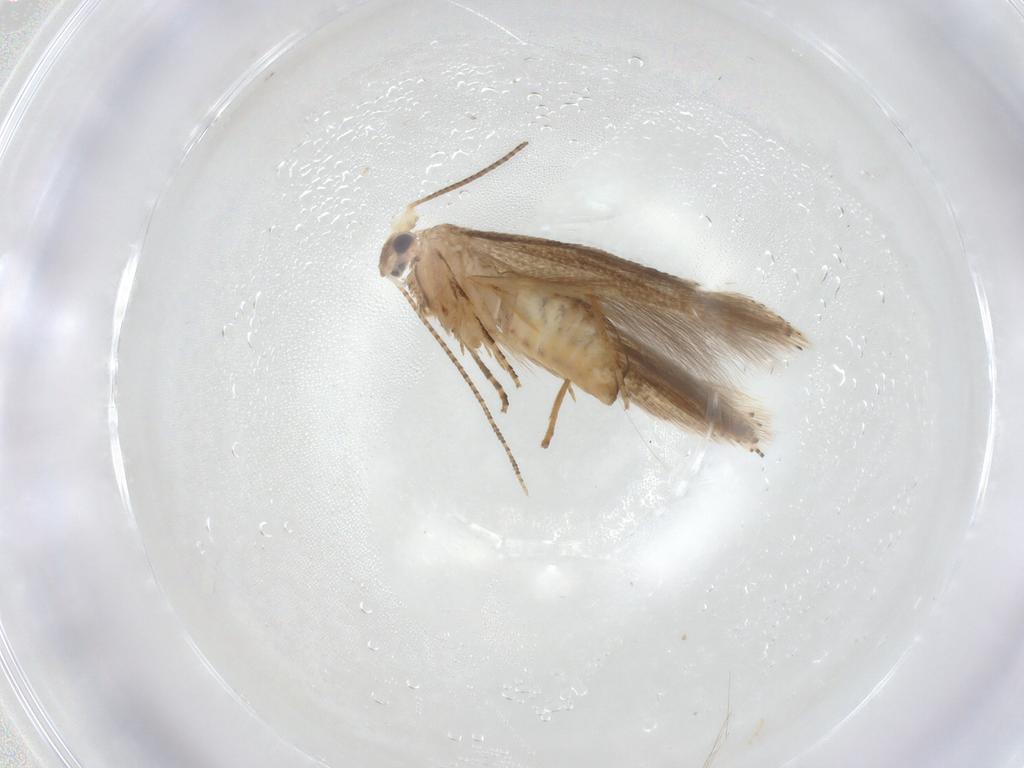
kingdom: Animalia
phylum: Arthropoda
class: Insecta
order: Lepidoptera
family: Bucculatricidae
